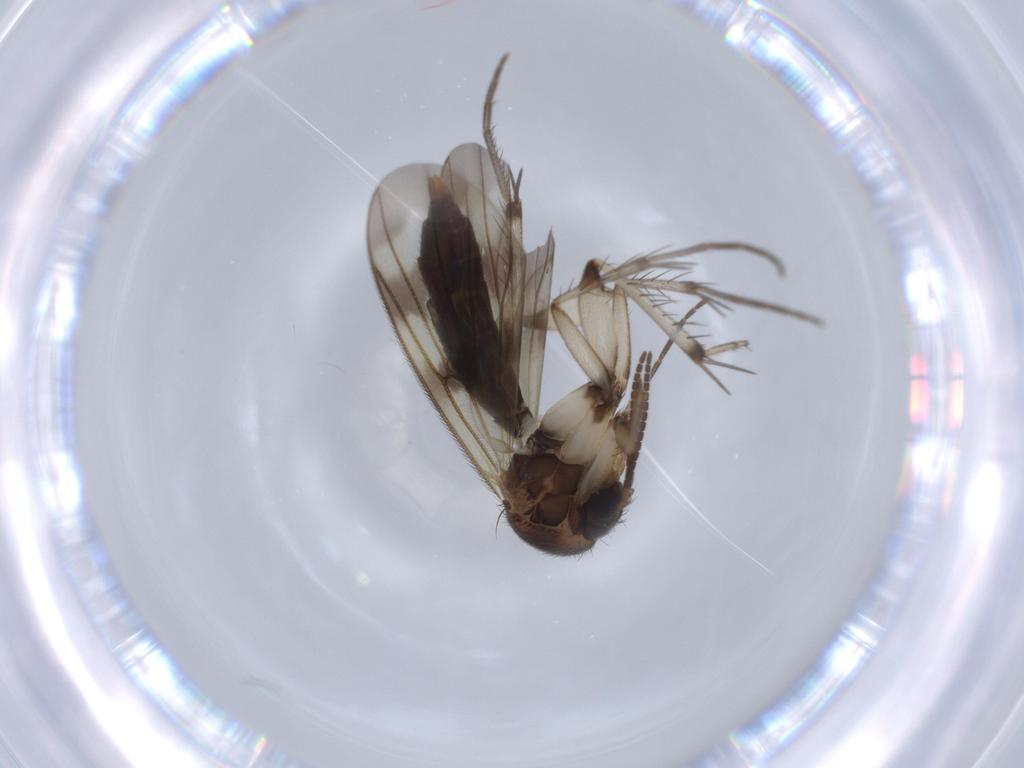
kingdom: Animalia
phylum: Arthropoda
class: Insecta
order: Diptera
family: Mycetophilidae
